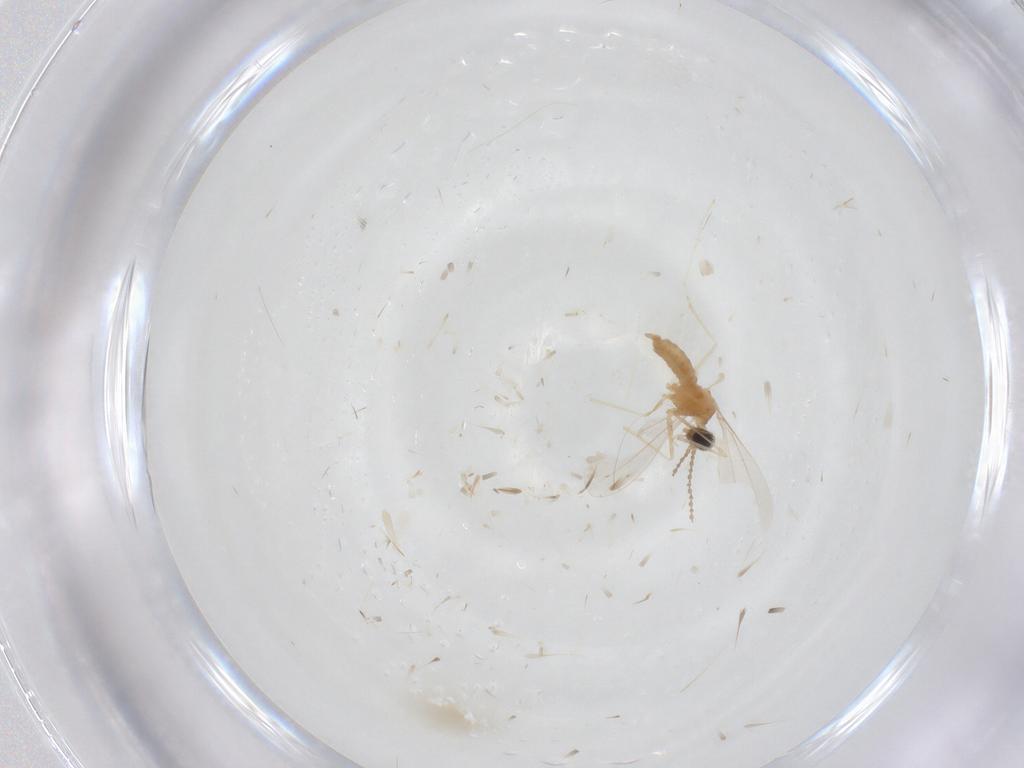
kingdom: Animalia
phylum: Arthropoda
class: Insecta
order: Diptera
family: Cecidomyiidae
